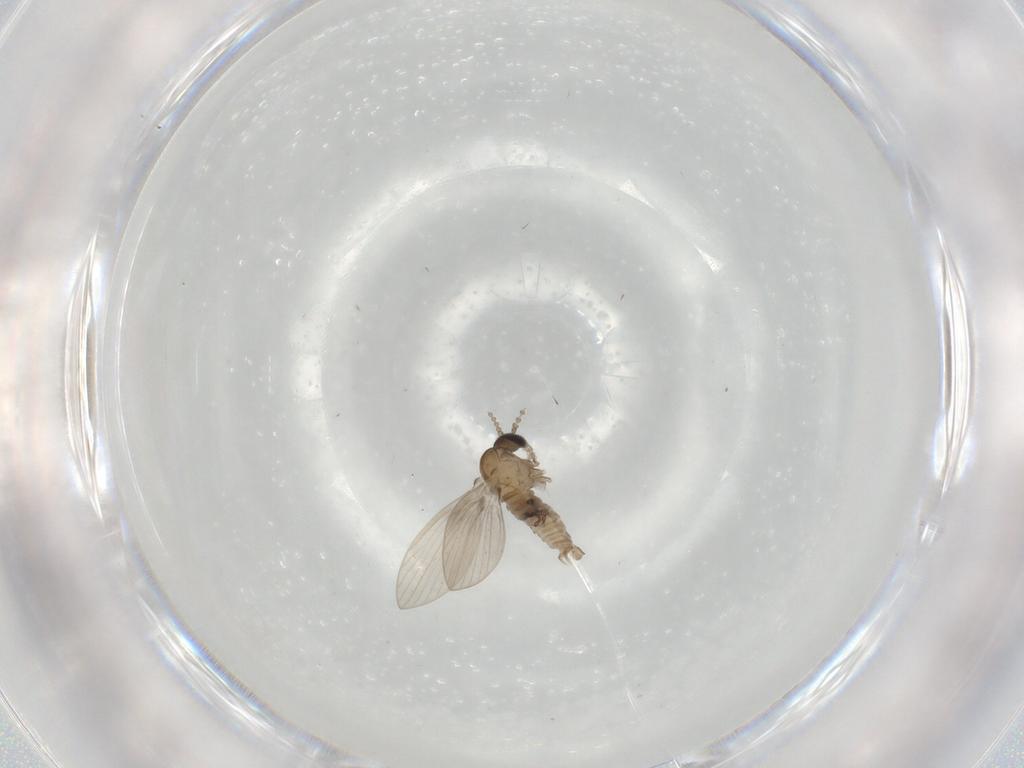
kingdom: Animalia
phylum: Arthropoda
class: Insecta
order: Diptera
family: Sciaridae
